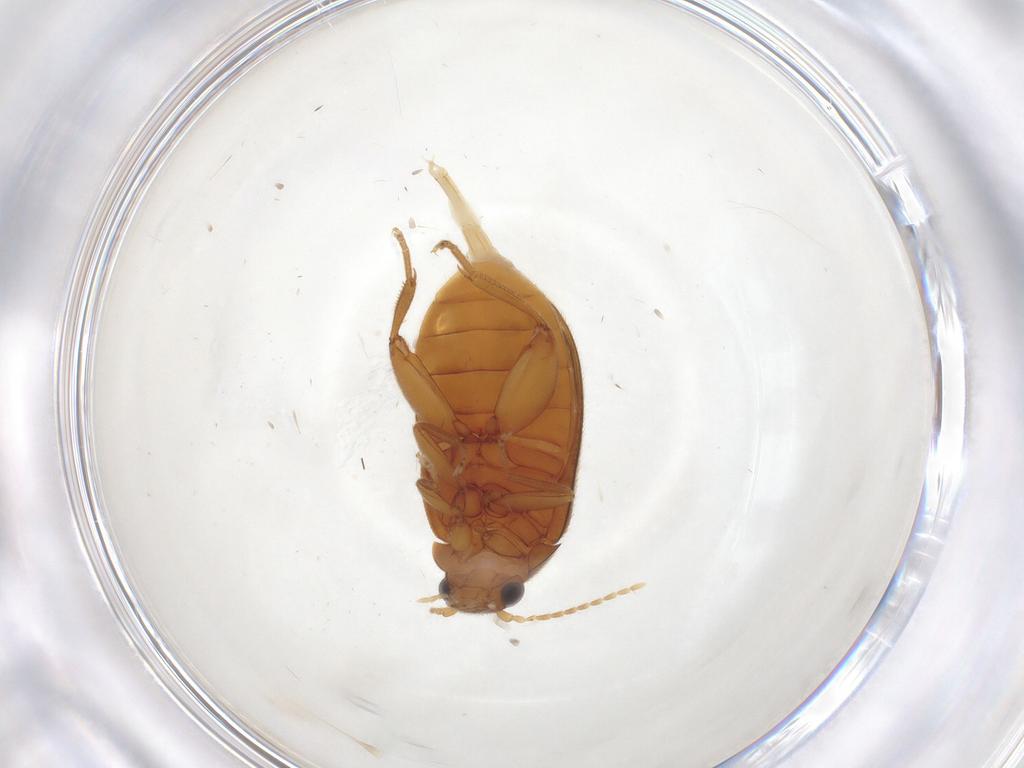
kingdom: Animalia
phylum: Arthropoda
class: Insecta
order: Coleoptera
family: Scirtidae
